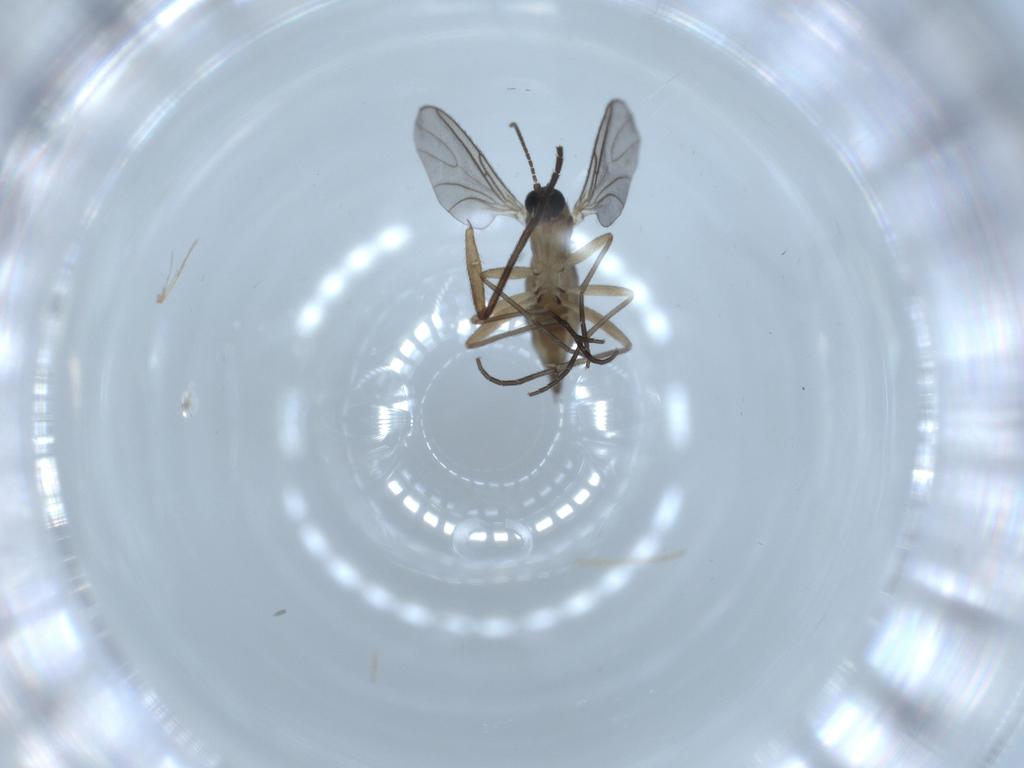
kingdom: Animalia
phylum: Arthropoda
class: Insecta
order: Diptera
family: Sciaridae
